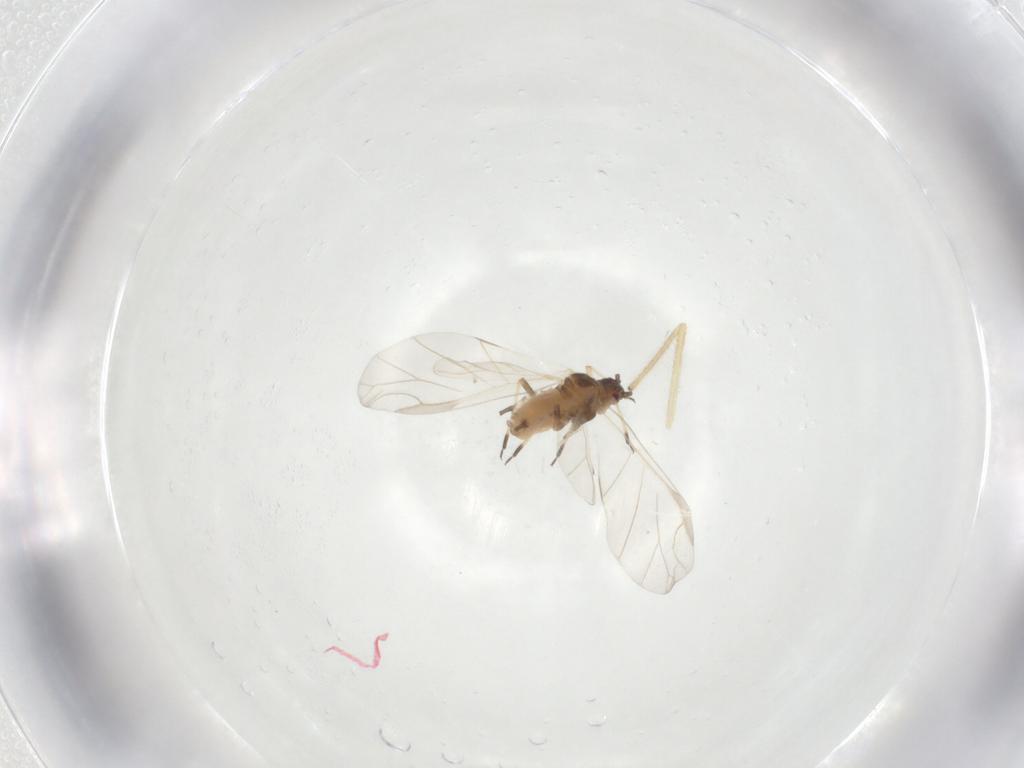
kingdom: Animalia
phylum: Arthropoda
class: Insecta
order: Hemiptera
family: Aphididae
